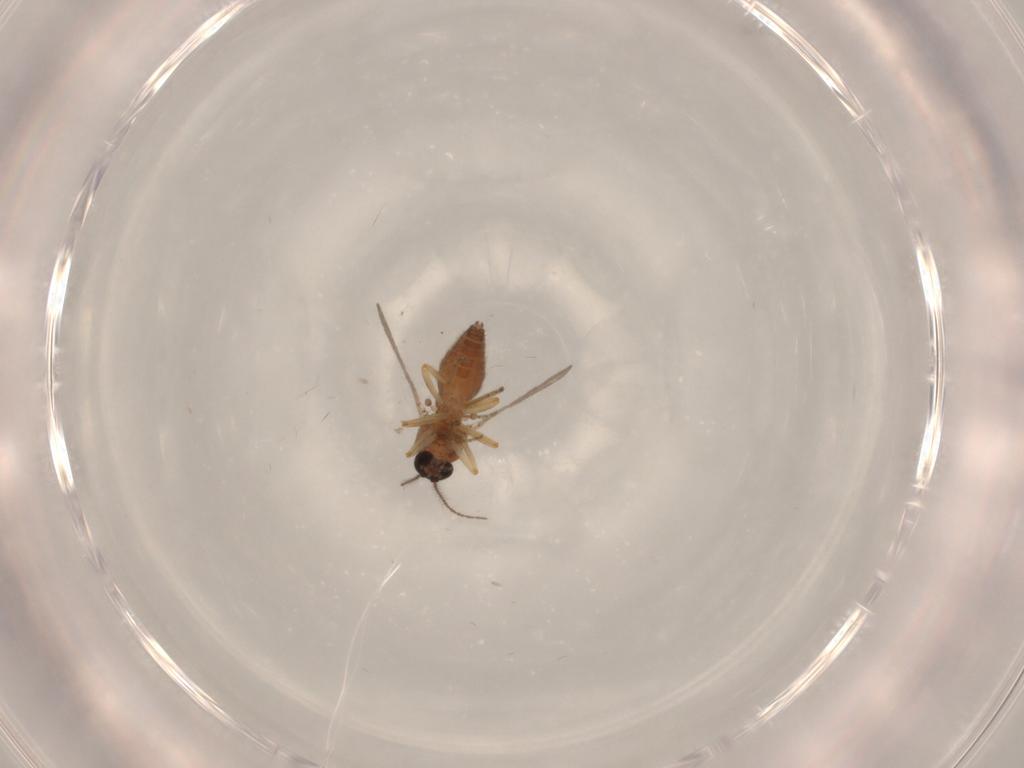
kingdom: Animalia
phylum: Arthropoda
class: Insecta
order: Diptera
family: Ceratopogonidae
